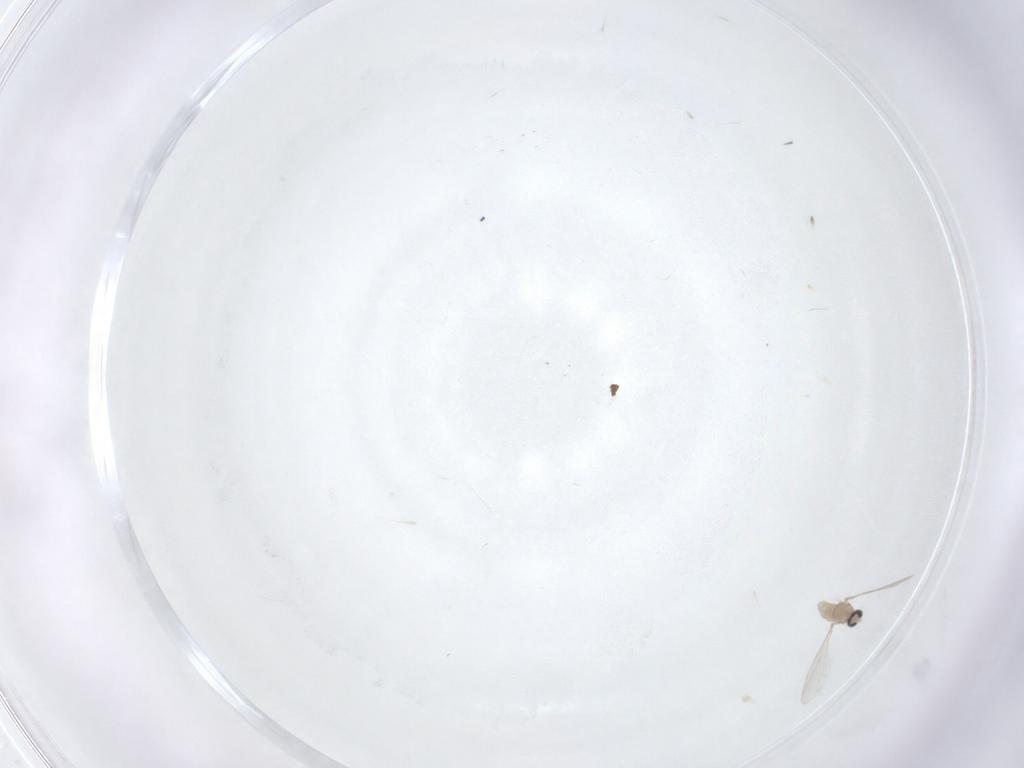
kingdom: Animalia
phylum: Arthropoda
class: Insecta
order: Diptera
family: Cecidomyiidae
